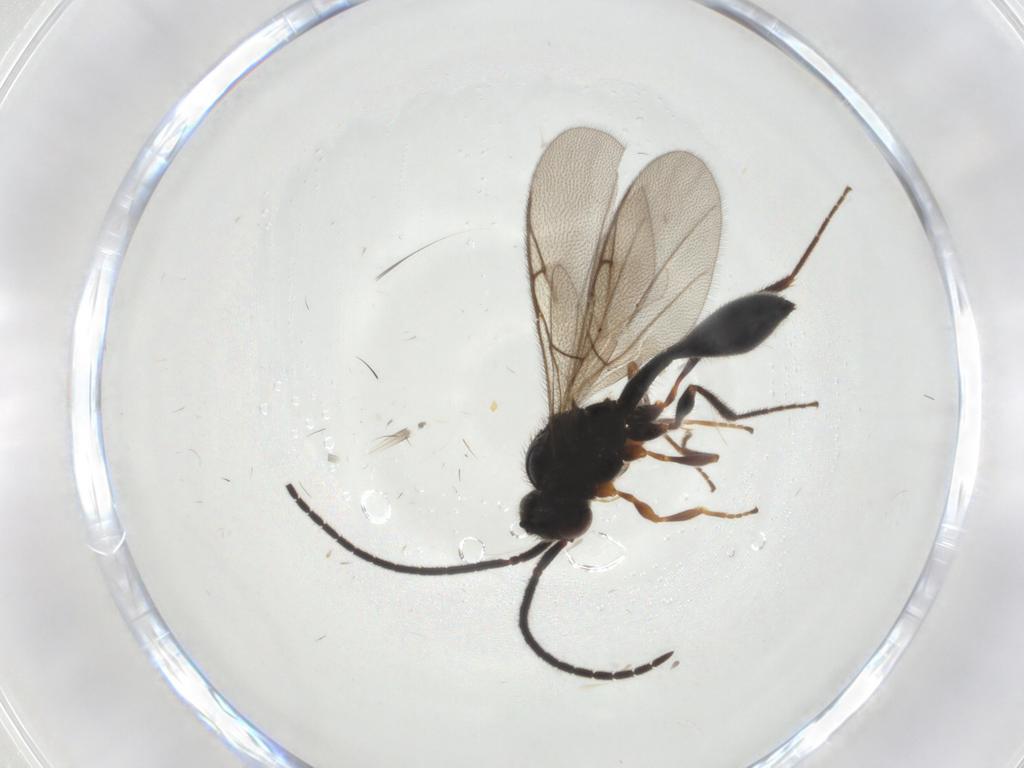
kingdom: Animalia
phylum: Arthropoda
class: Insecta
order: Hymenoptera
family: Diapriidae
